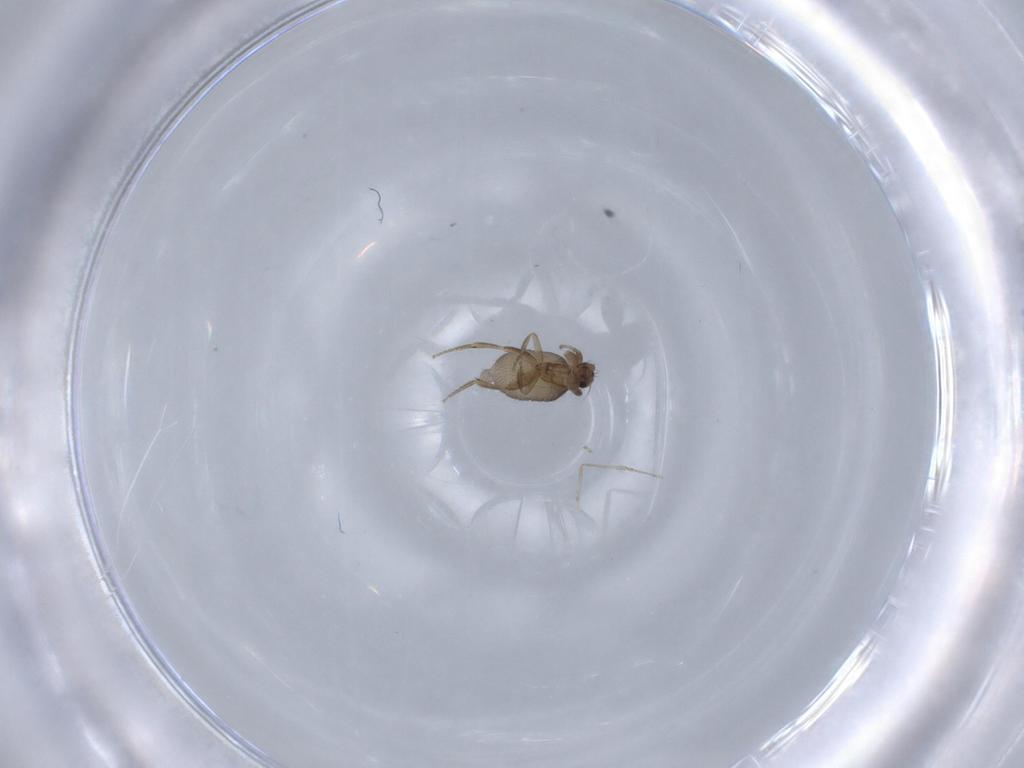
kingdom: Animalia
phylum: Arthropoda
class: Insecta
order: Diptera
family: Cecidomyiidae
